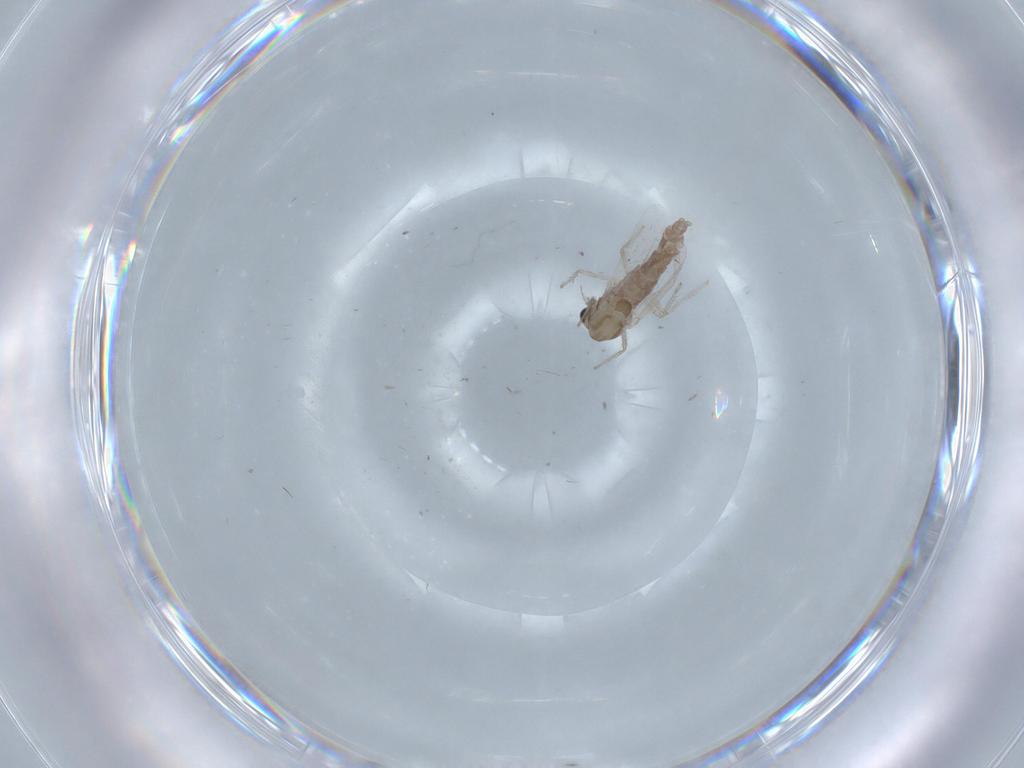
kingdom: Animalia
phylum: Arthropoda
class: Insecta
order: Diptera
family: Chironomidae
